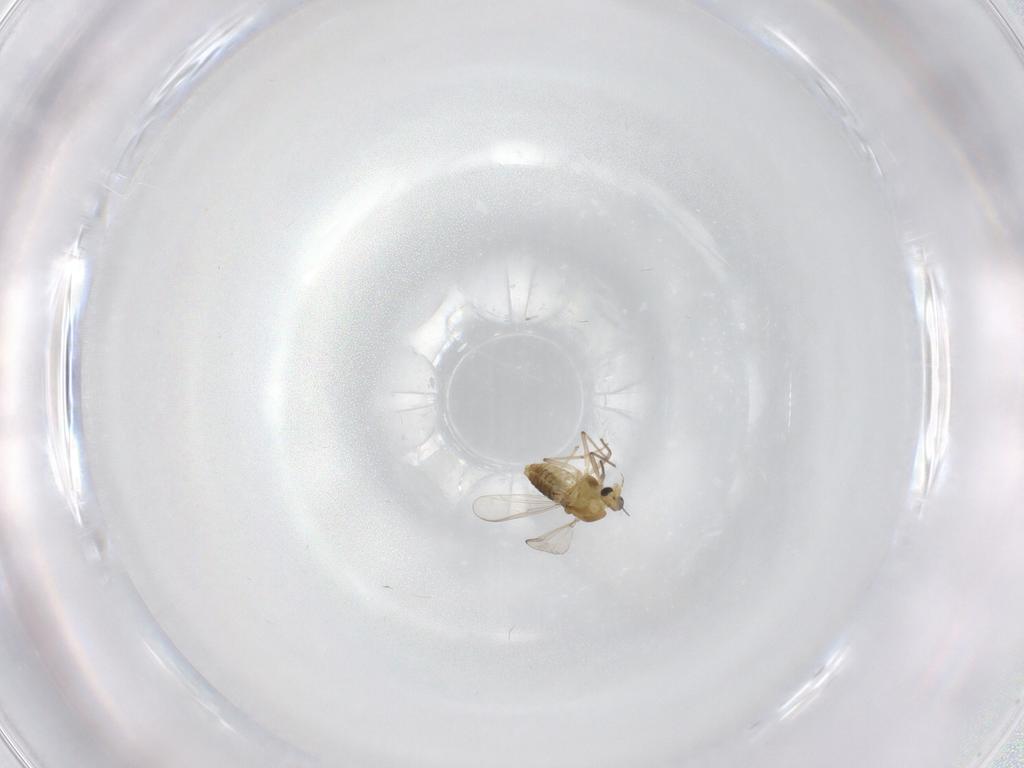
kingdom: Animalia
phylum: Arthropoda
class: Insecta
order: Diptera
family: Chironomidae
